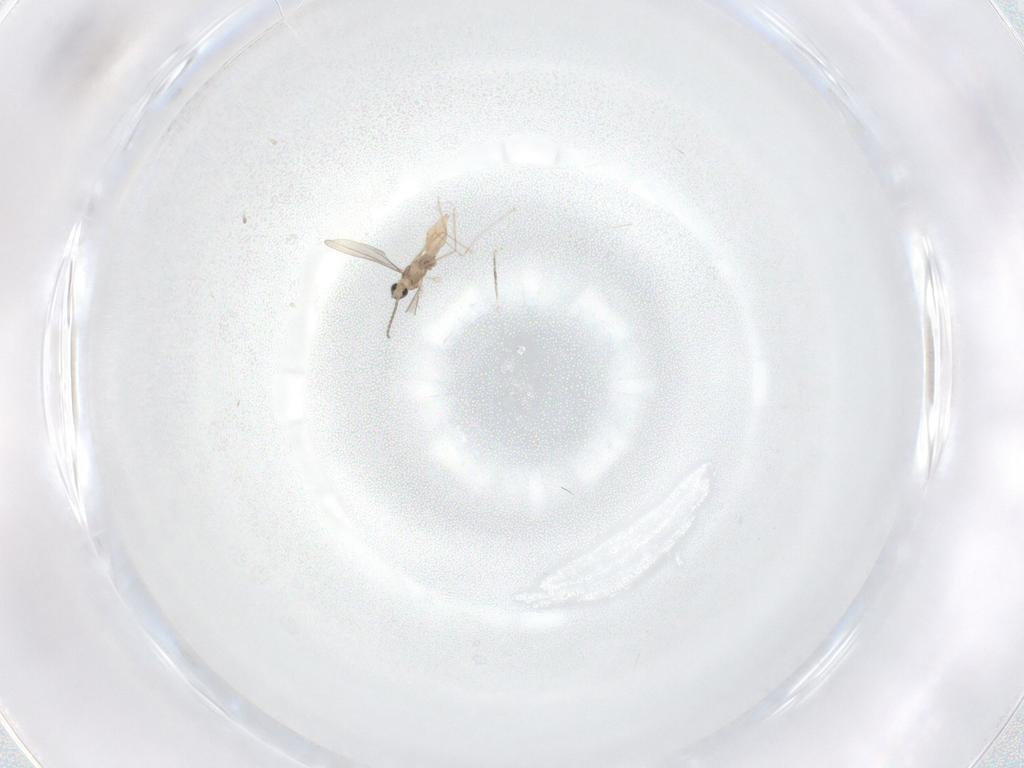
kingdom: Animalia
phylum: Arthropoda
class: Insecta
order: Diptera
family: Cecidomyiidae
